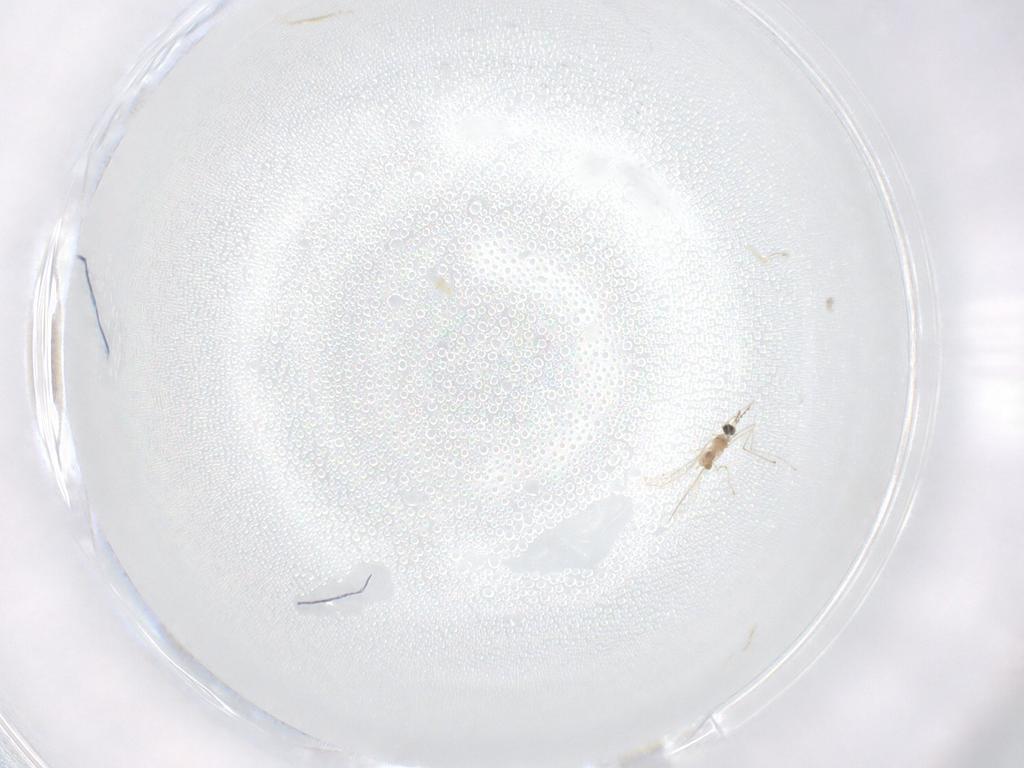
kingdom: Animalia
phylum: Arthropoda
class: Insecta
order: Diptera
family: Cecidomyiidae
